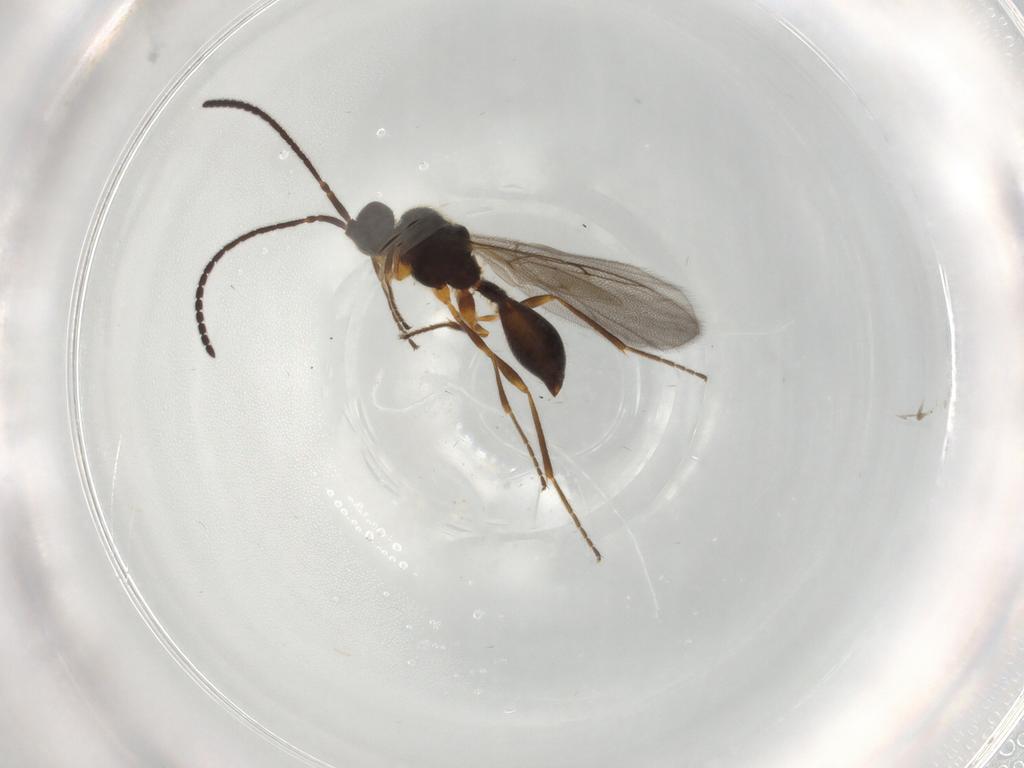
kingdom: Animalia
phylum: Arthropoda
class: Insecta
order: Hymenoptera
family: Diapriidae
